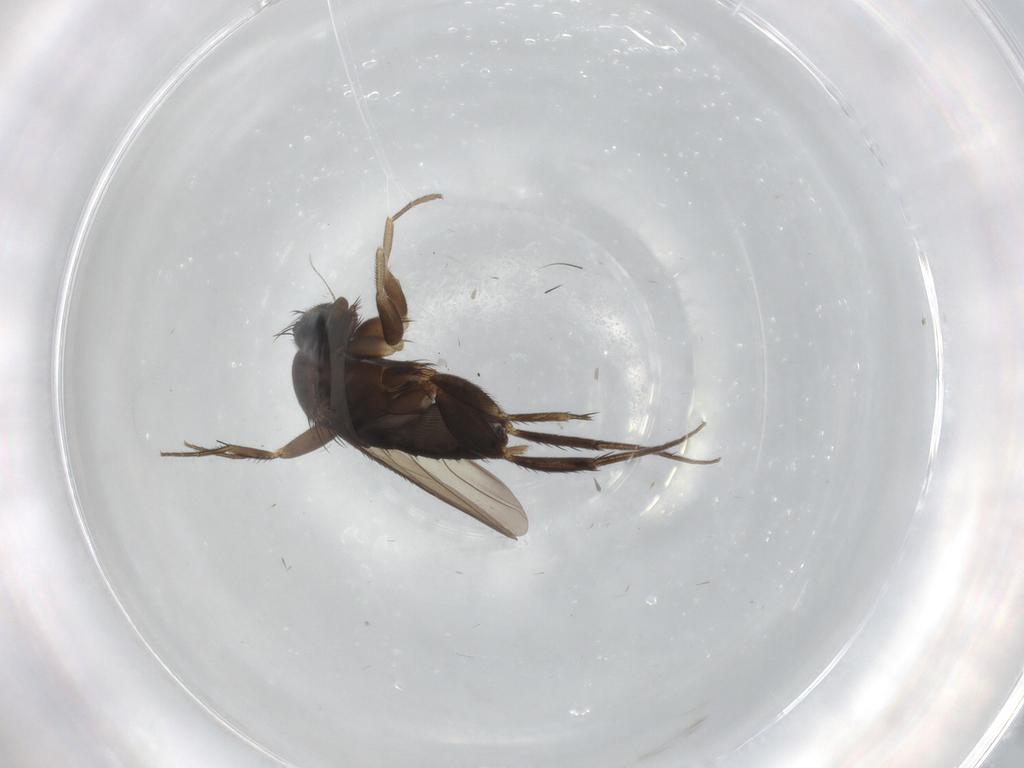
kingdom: Animalia
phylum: Arthropoda
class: Insecta
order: Diptera
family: Phoridae
